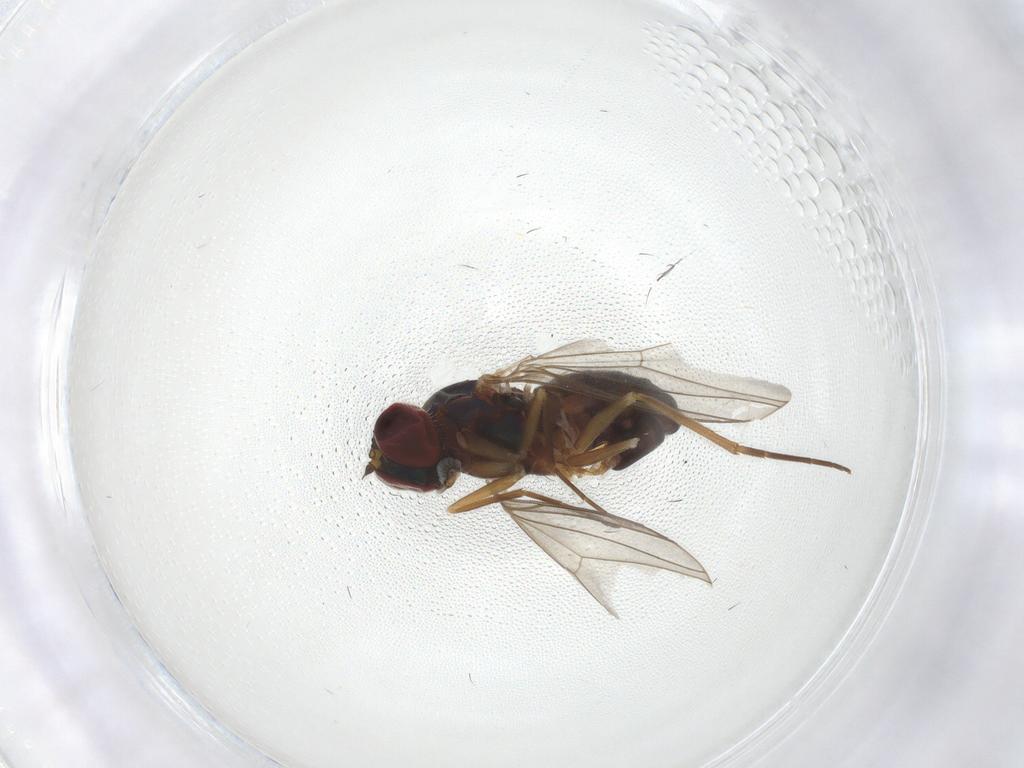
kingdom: Animalia
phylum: Arthropoda
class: Insecta
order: Diptera
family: Dolichopodidae
